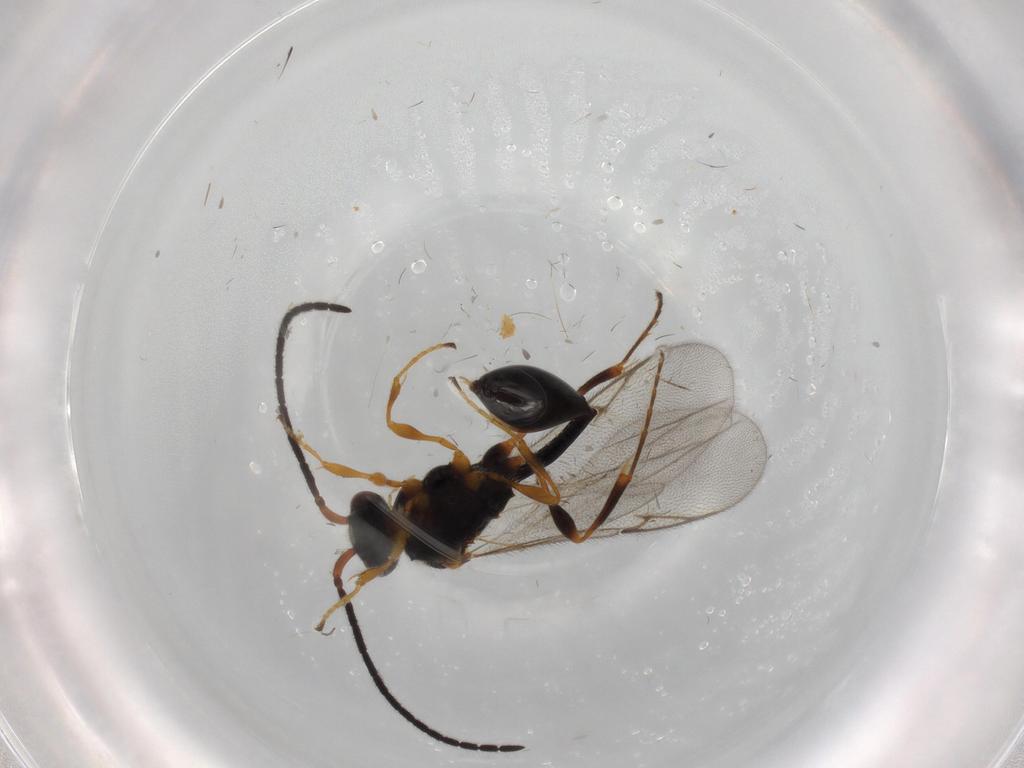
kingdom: Animalia
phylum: Arthropoda
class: Insecta
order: Hymenoptera
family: Diapriidae
